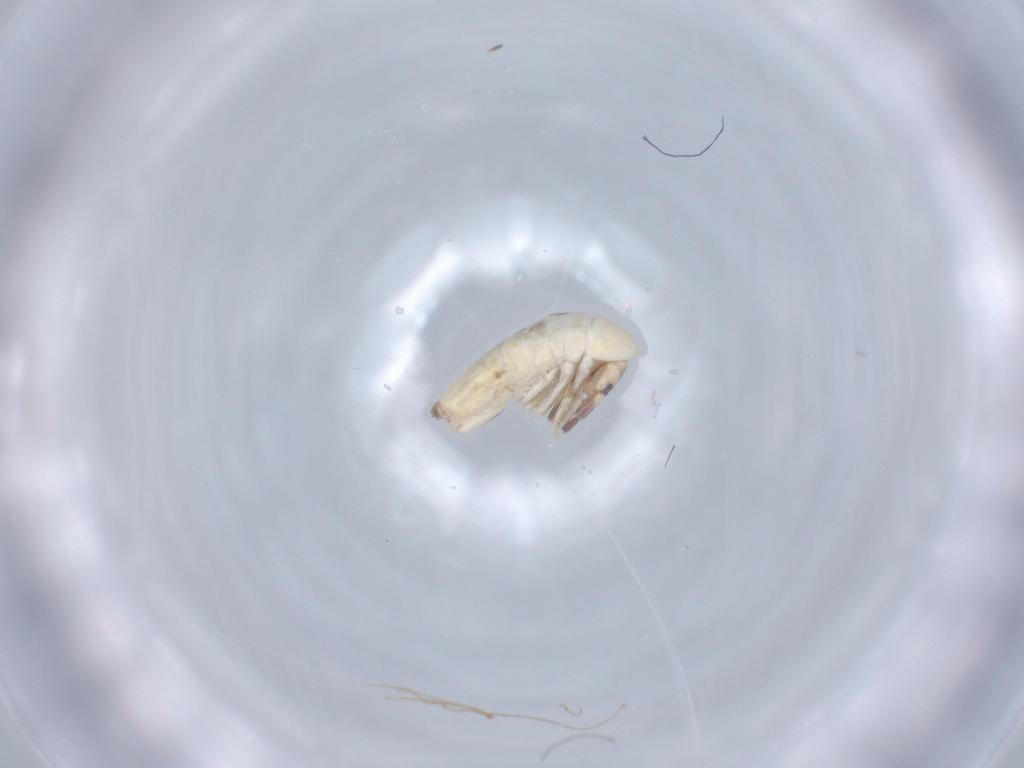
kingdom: Animalia
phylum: Arthropoda
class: Collembola
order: Entomobryomorpha
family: Entomobryidae
